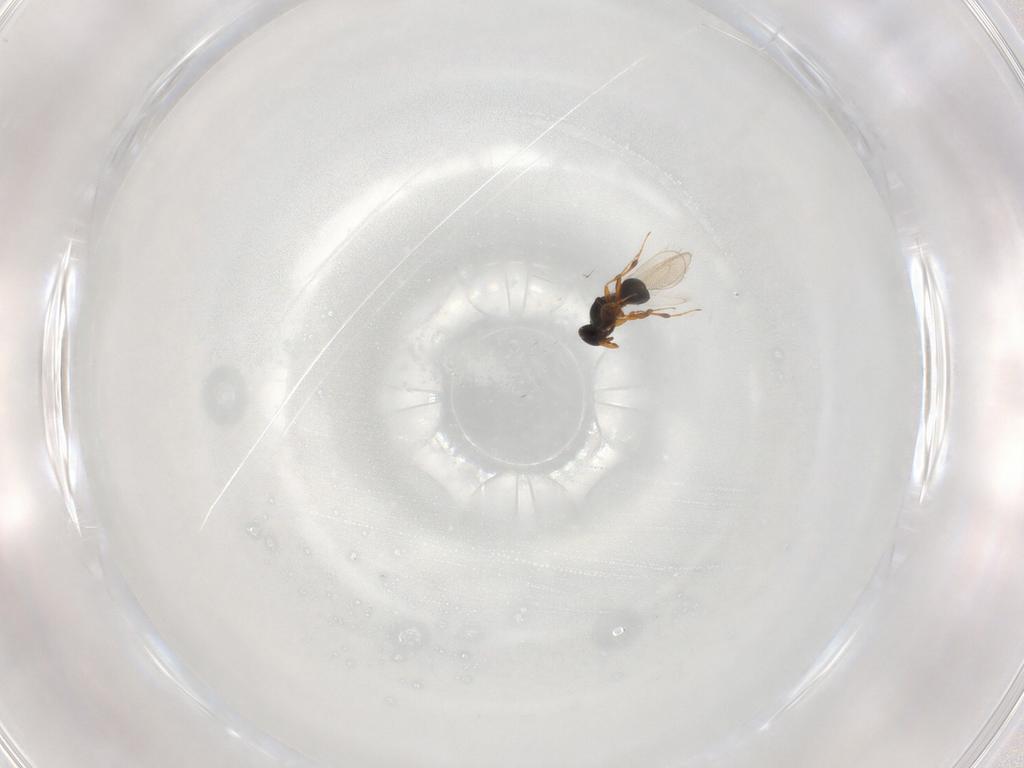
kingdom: Animalia
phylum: Arthropoda
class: Insecta
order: Hymenoptera
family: Platygastridae
